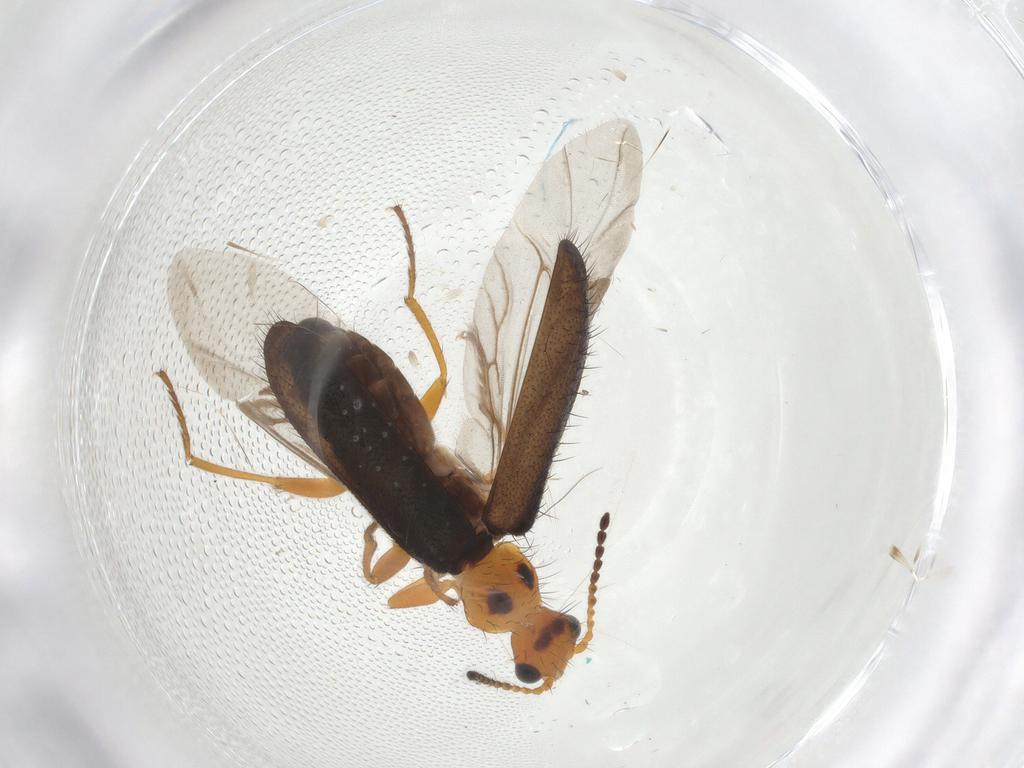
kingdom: Animalia
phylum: Arthropoda
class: Insecta
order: Coleoptera
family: Melyridae
